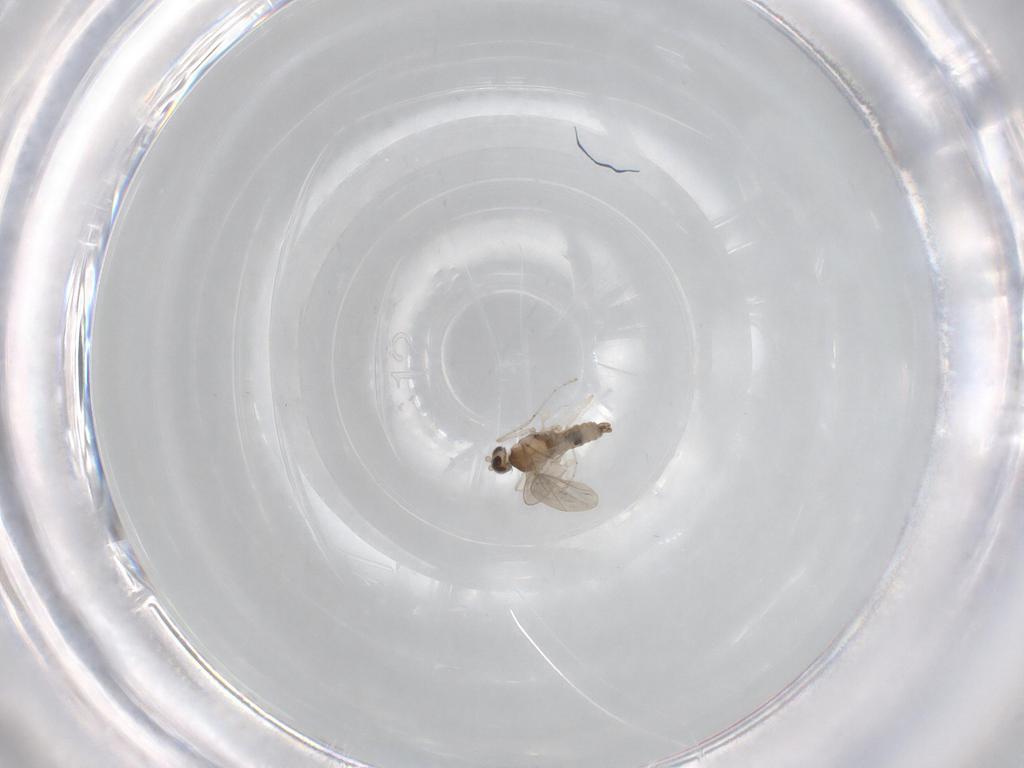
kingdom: Animalia
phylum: Arthropoda
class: Insecta
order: Diptera
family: Cecidomyiidae
